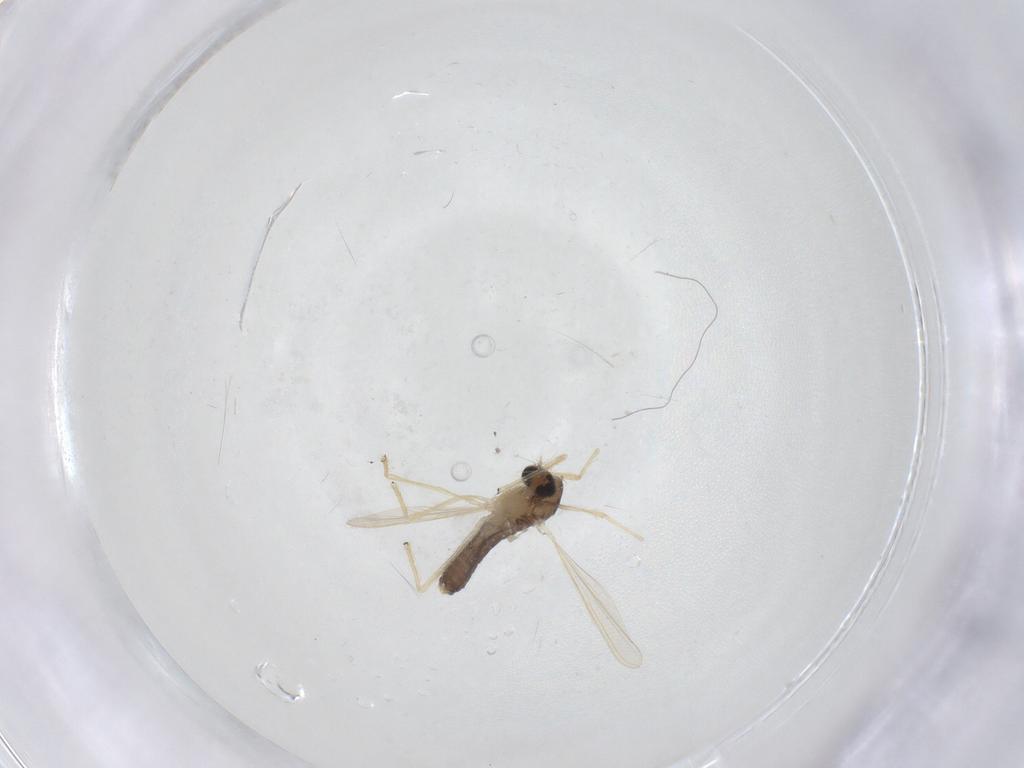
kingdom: Animalia
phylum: Arthropoda
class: Insecta
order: Diptera
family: Chironomidae
